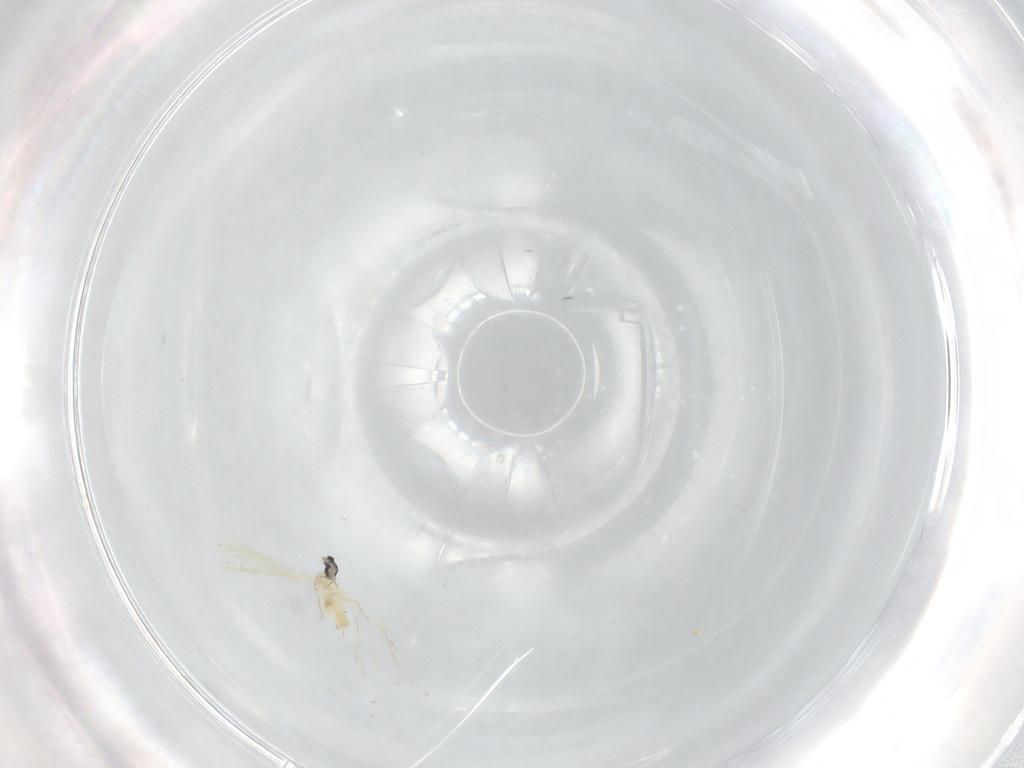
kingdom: Animalia
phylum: Arthropoda
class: Insecta
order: Diptera
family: Cecidomyiidae
